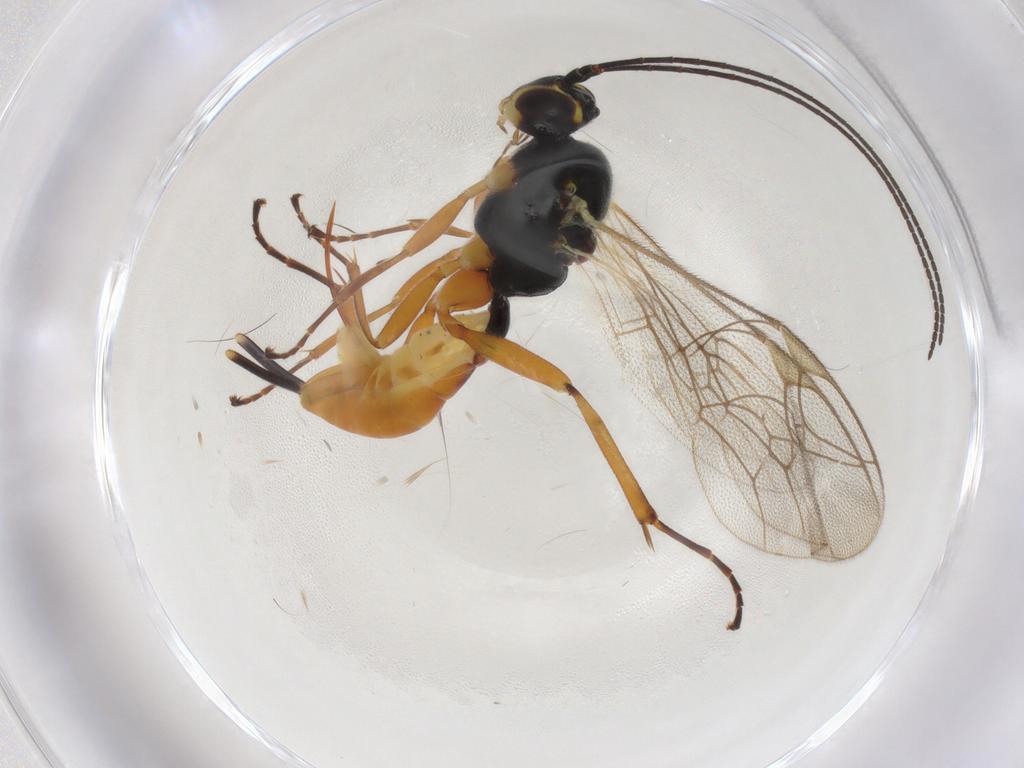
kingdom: Animalia
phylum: Arthropoda
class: Insecta
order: Hymenoptera
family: Ichneumonidae
